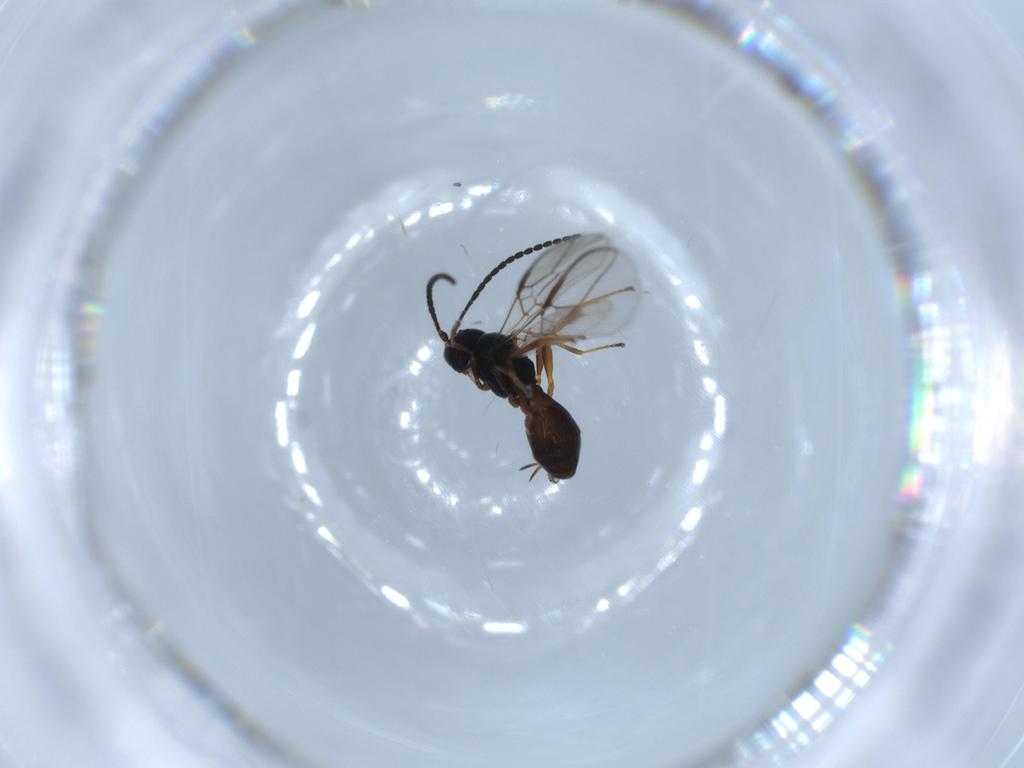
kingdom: Animalia
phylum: Arthropoda
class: Insecta
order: Hymenoptera
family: Braconidae
